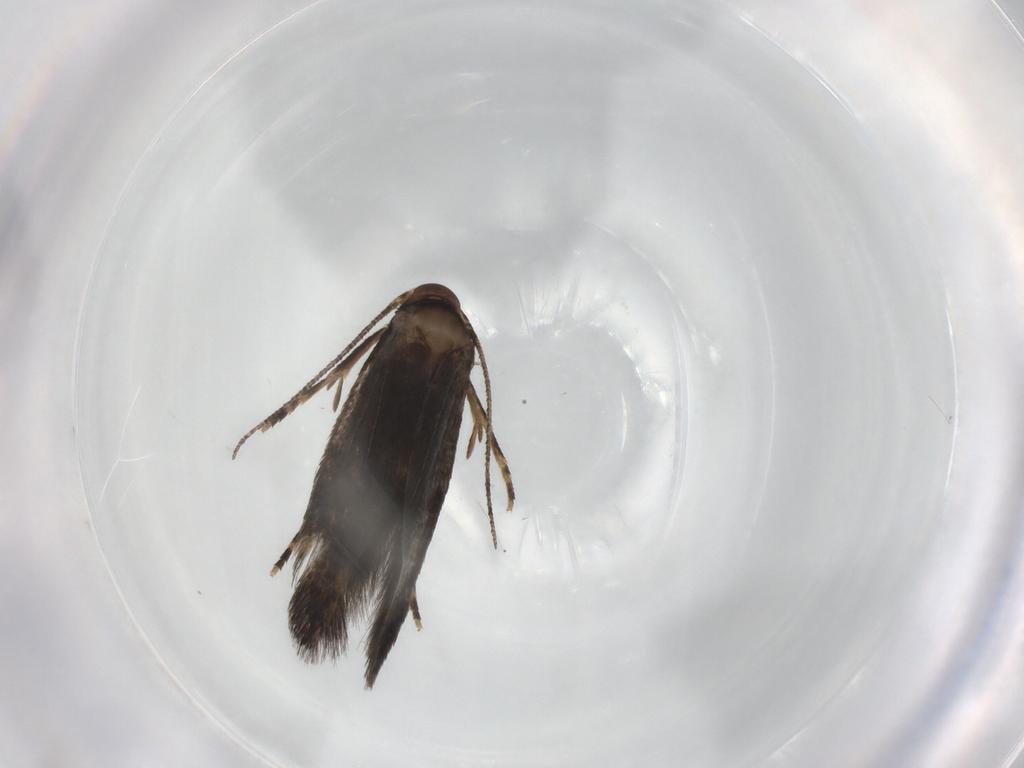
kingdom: Animalia
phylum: Arthropoda
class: Insecta
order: Lepidoptera
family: Elachistidae
